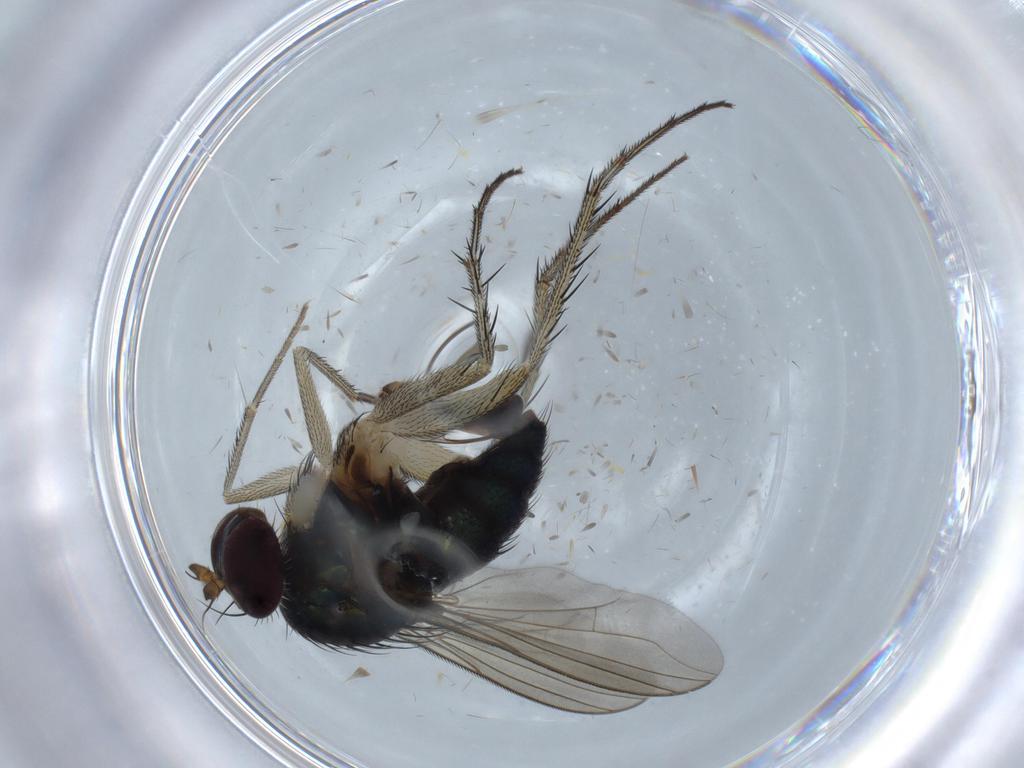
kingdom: Animalia
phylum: Arthropoda
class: Insecta
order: Diptera
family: Dolichopodidae
